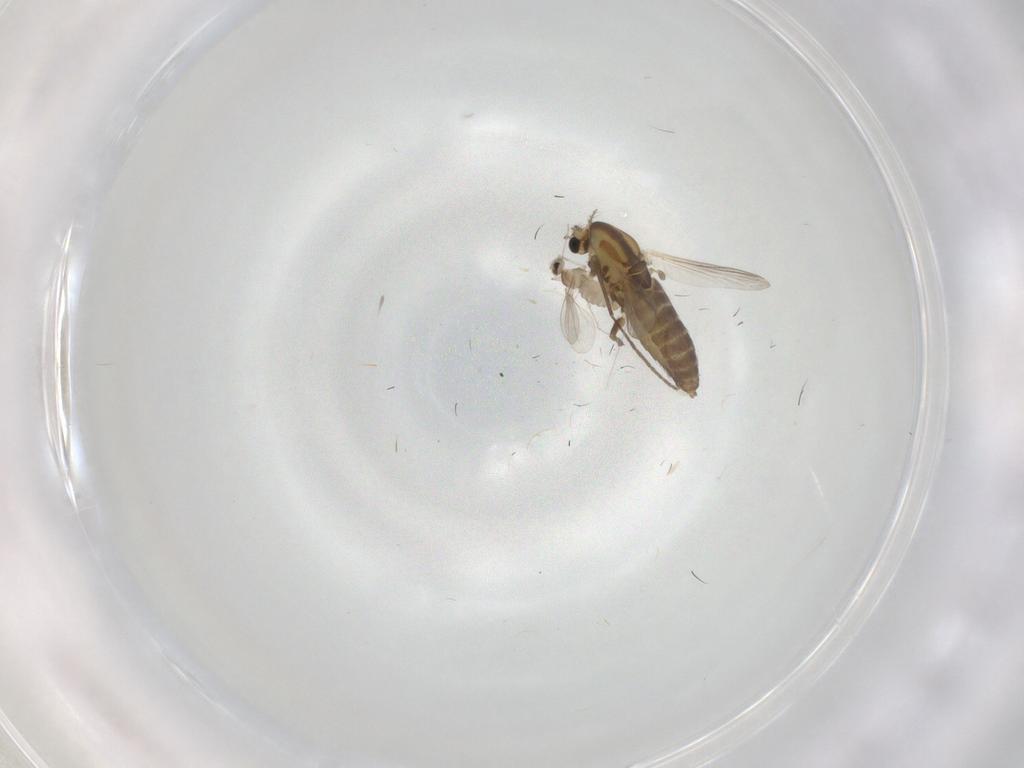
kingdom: Animalia
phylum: Arthropoda
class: Insecta
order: Diptera
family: Chironomidae
